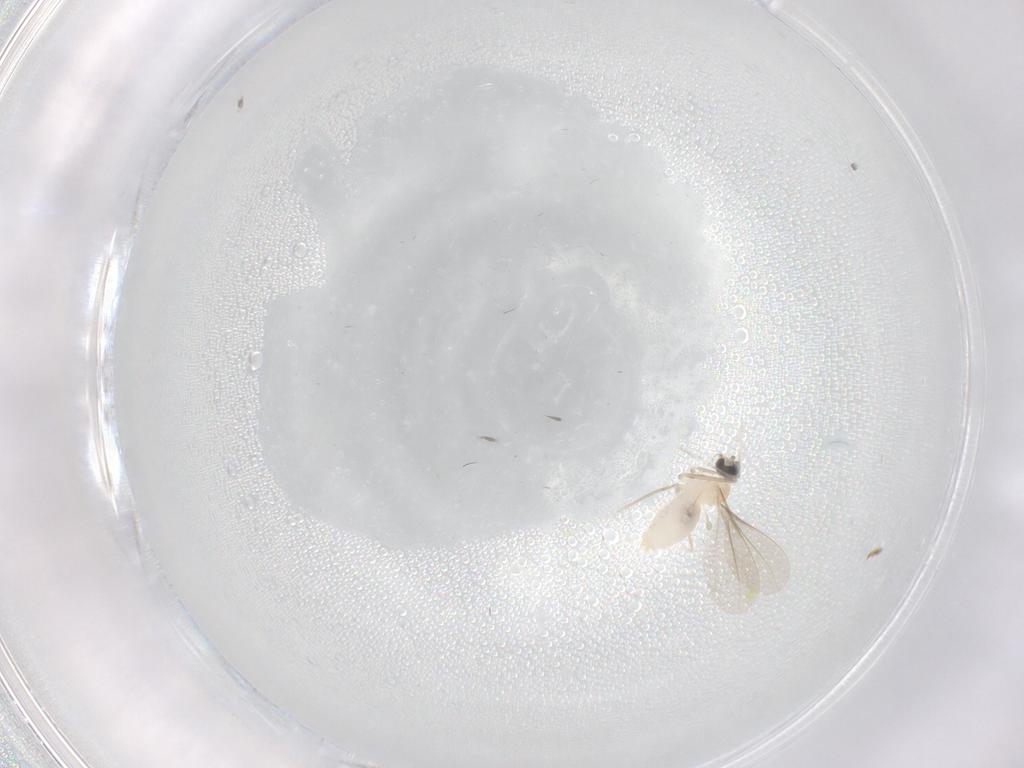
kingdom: Animalia
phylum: Arthropoda
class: Insecta
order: Diptera
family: Cecidomyiidae
